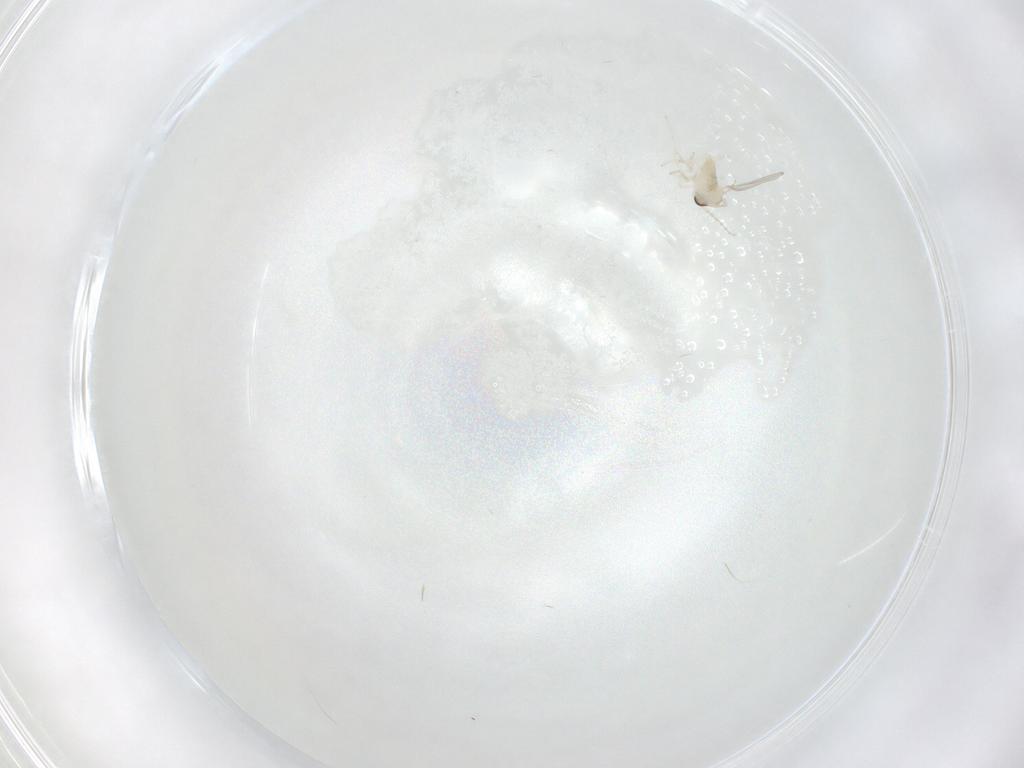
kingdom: Animalia
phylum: Arthropoda
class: Insecta
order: Diptera
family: Cecidomyiidae
